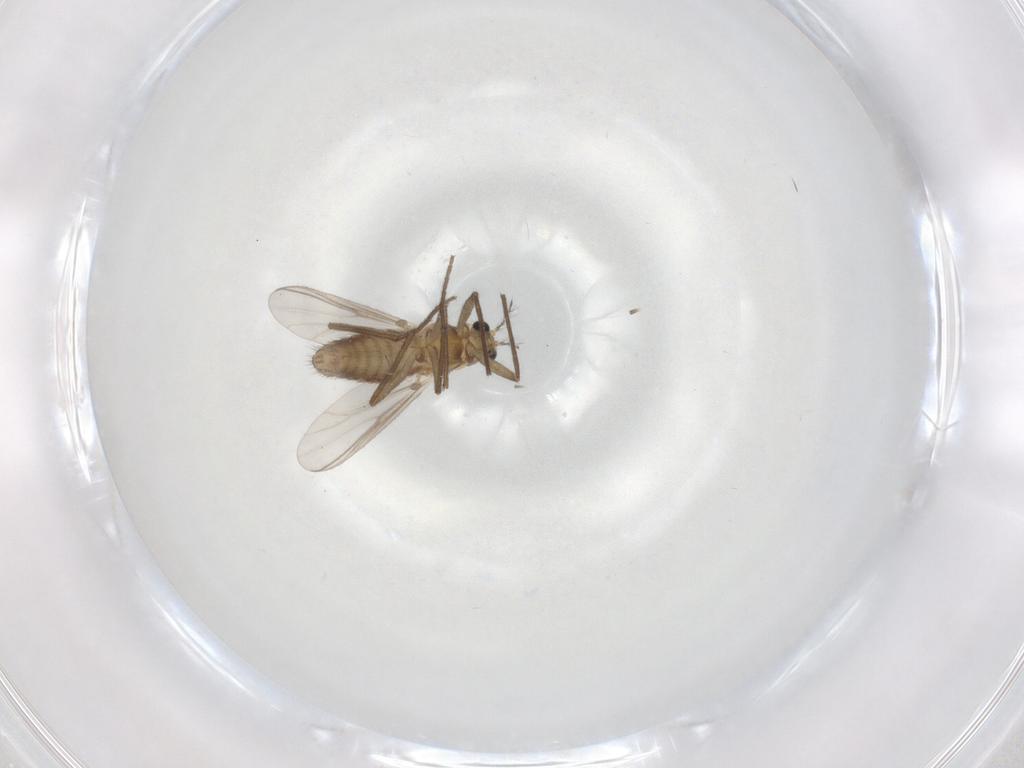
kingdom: Animalia
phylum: Arthropoda
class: Insecta
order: Diptera
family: Chironomidae
